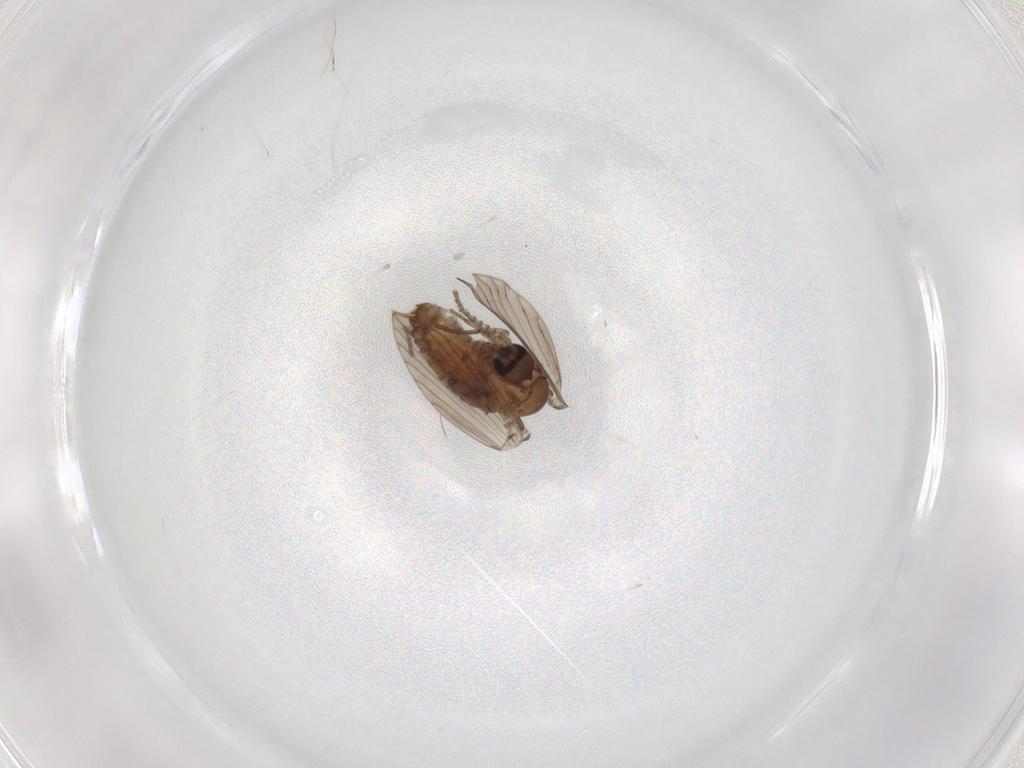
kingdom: Animalia
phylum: Arthropoda
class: Insecta
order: Diptera
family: Psychodidae
